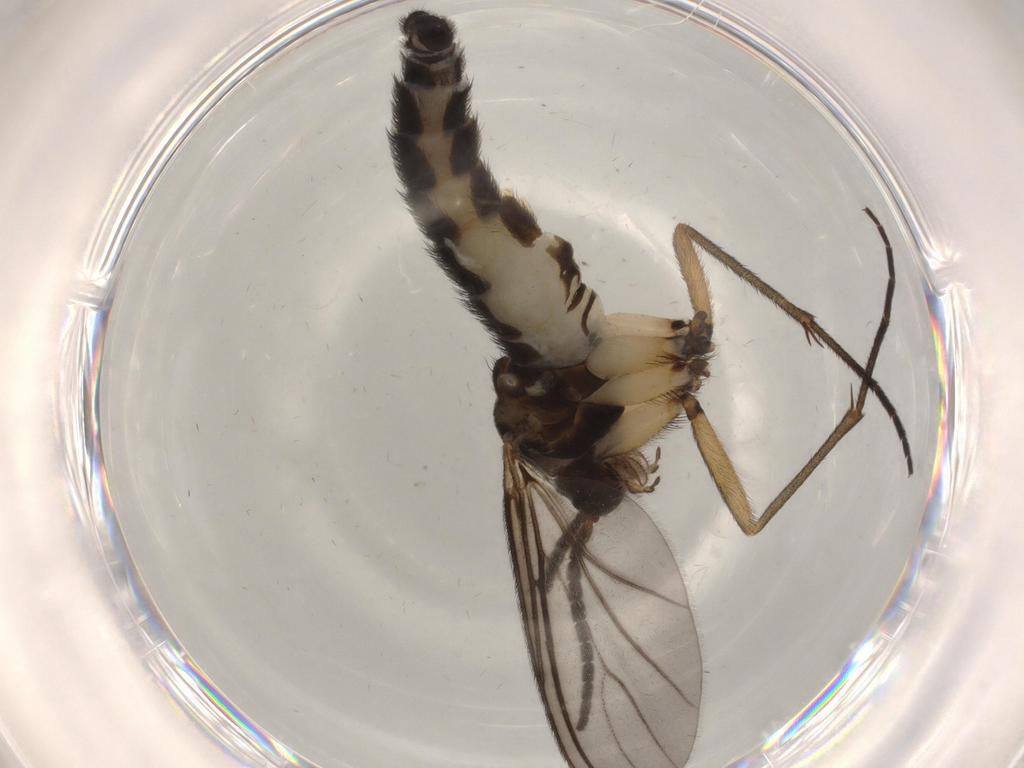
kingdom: Animalia
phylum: Arthropoda
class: Insecta
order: Diptera
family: Sciaridae
